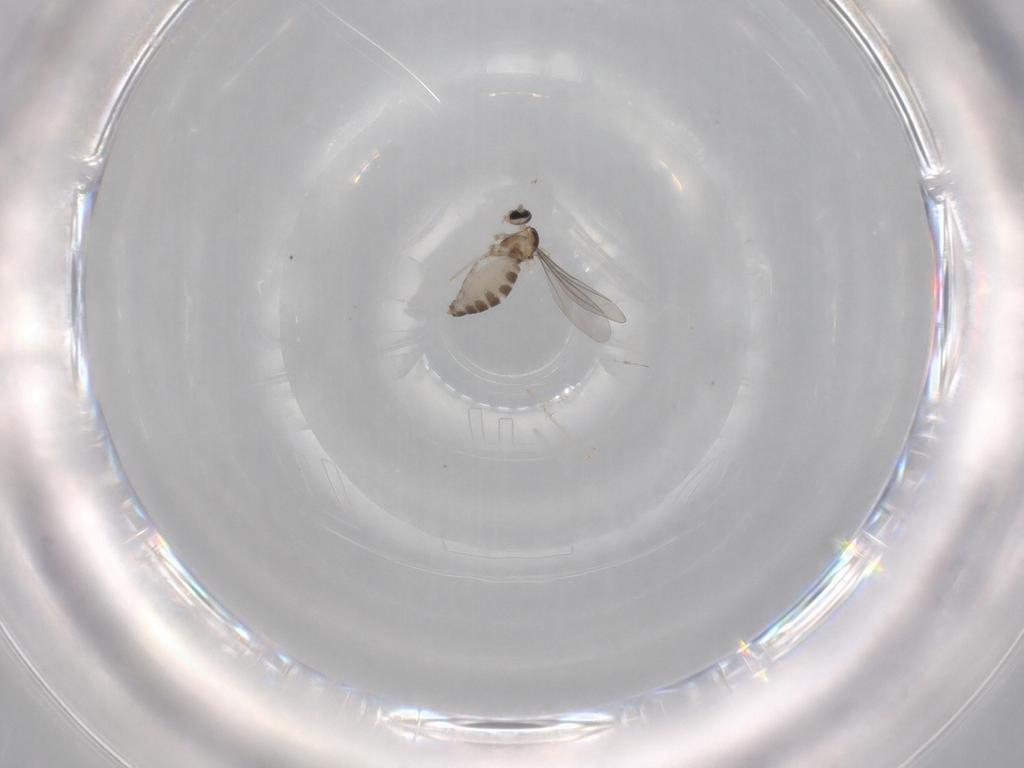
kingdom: Animalia
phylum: Arthropoda
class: Insecta
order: Diptera
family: Cecidomyiidae
